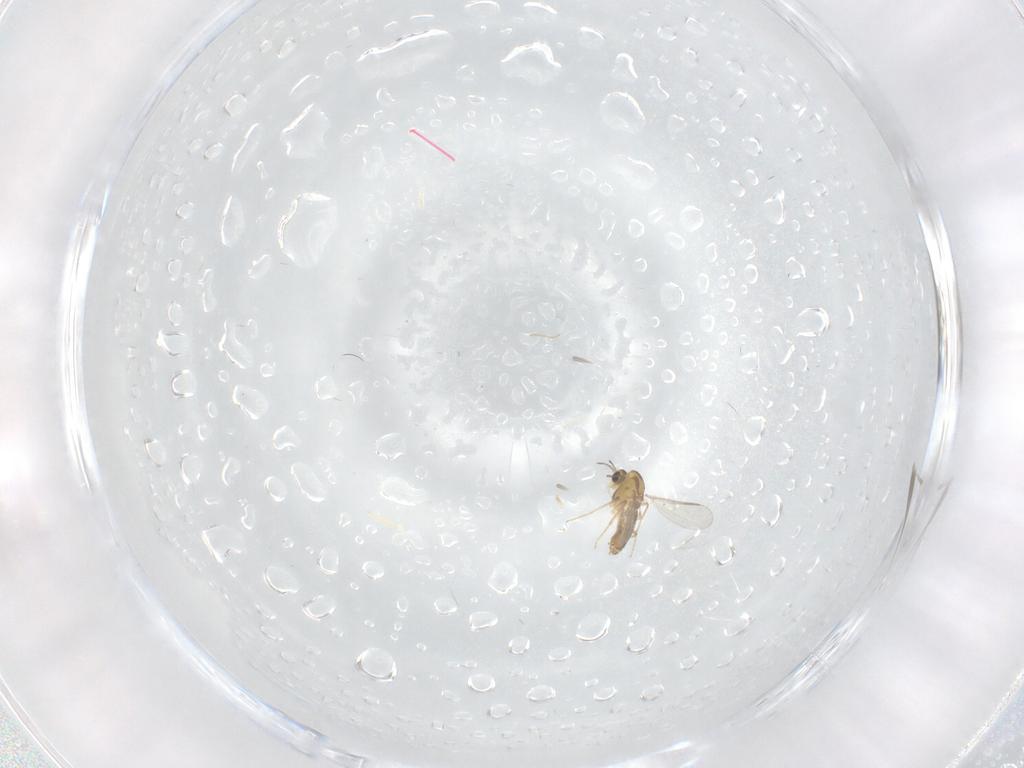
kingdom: Animalia
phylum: Arthropoda
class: Insecta
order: Diptera
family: Chironomidae
